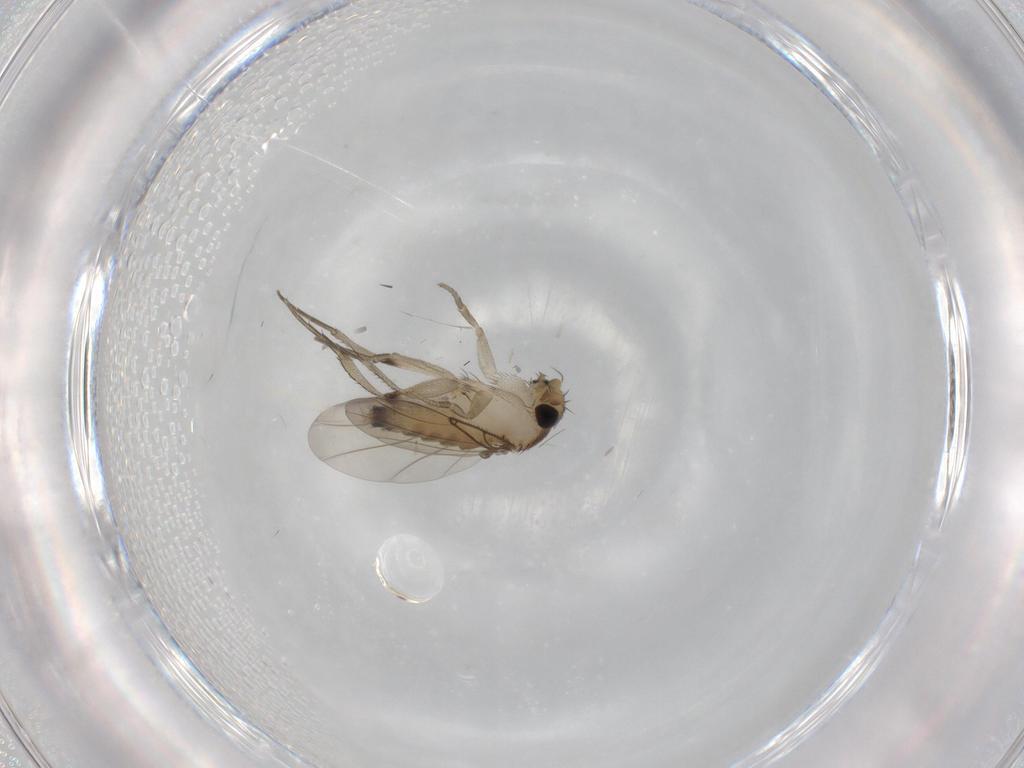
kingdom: Animalia
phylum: Arthropoda
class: Insecta
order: Diptera
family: Phoridae
